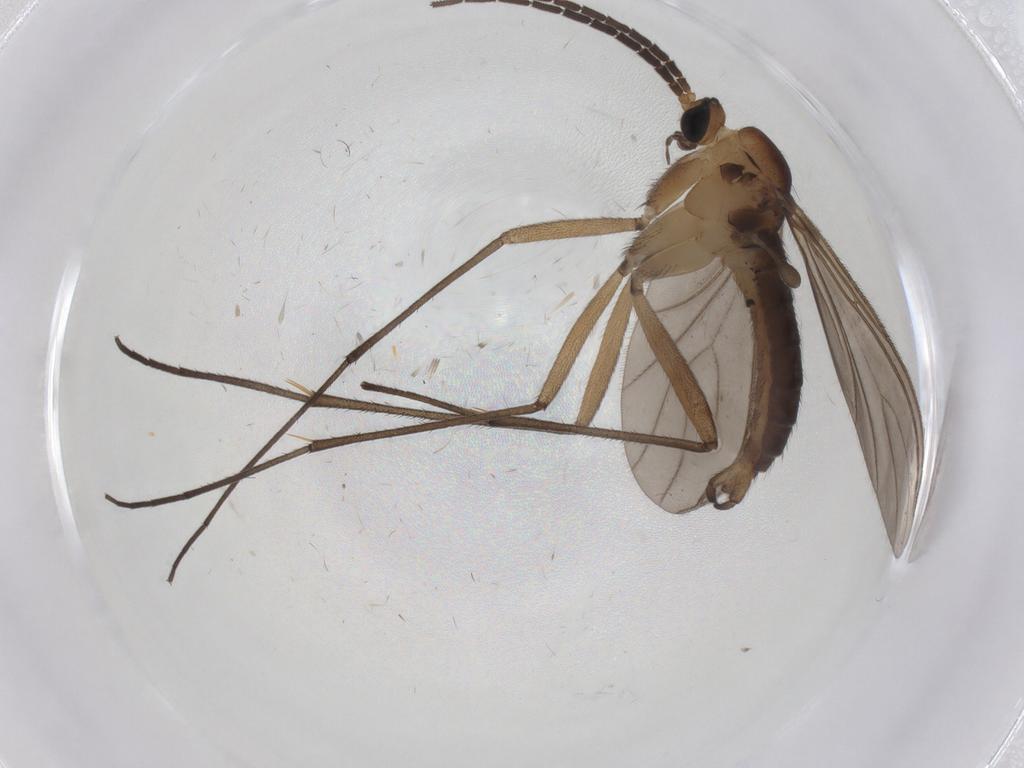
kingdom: Animalia
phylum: Arthropoda
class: Insecta
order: Diptera
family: Sciaridae
